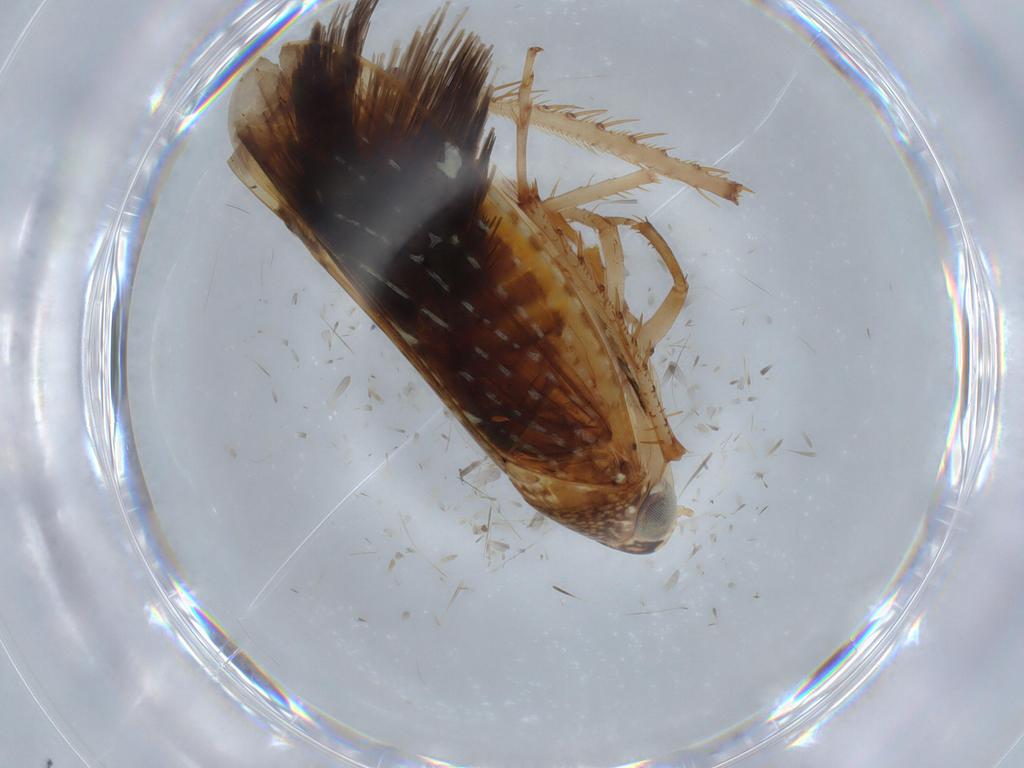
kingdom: Animalia
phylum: Arthropoda
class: Insecta
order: Hemiptera
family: Cicadellidae
